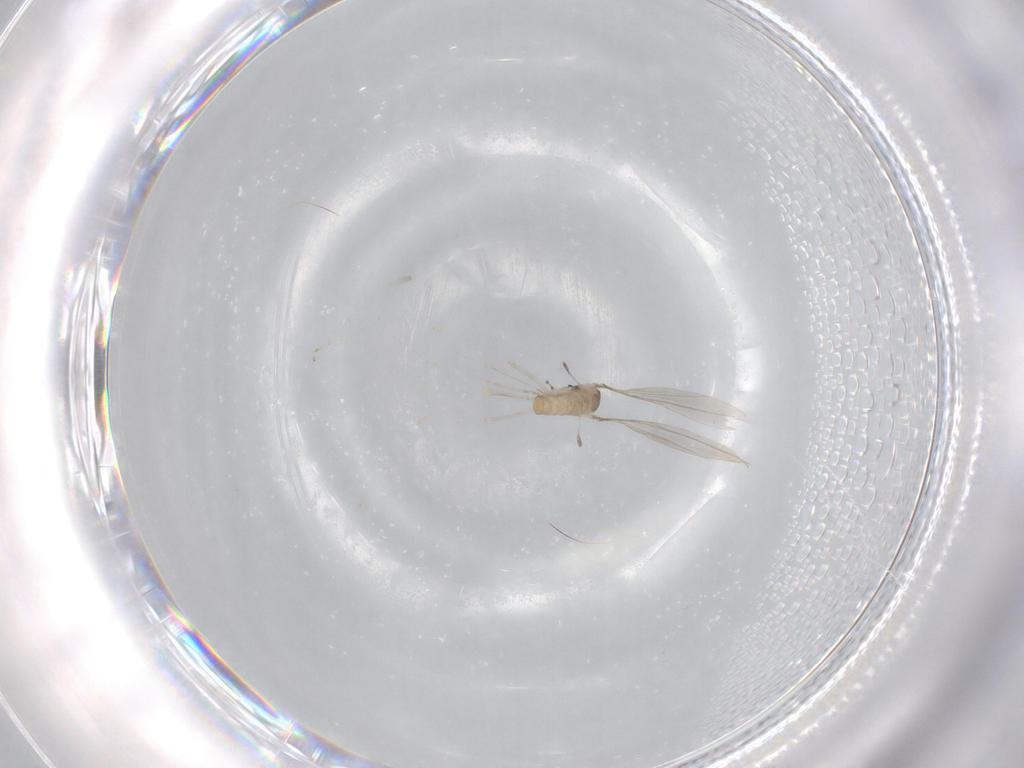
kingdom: Animalia
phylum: Arthropoda
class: Insecta
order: Diptera
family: Cecidomyiidae
